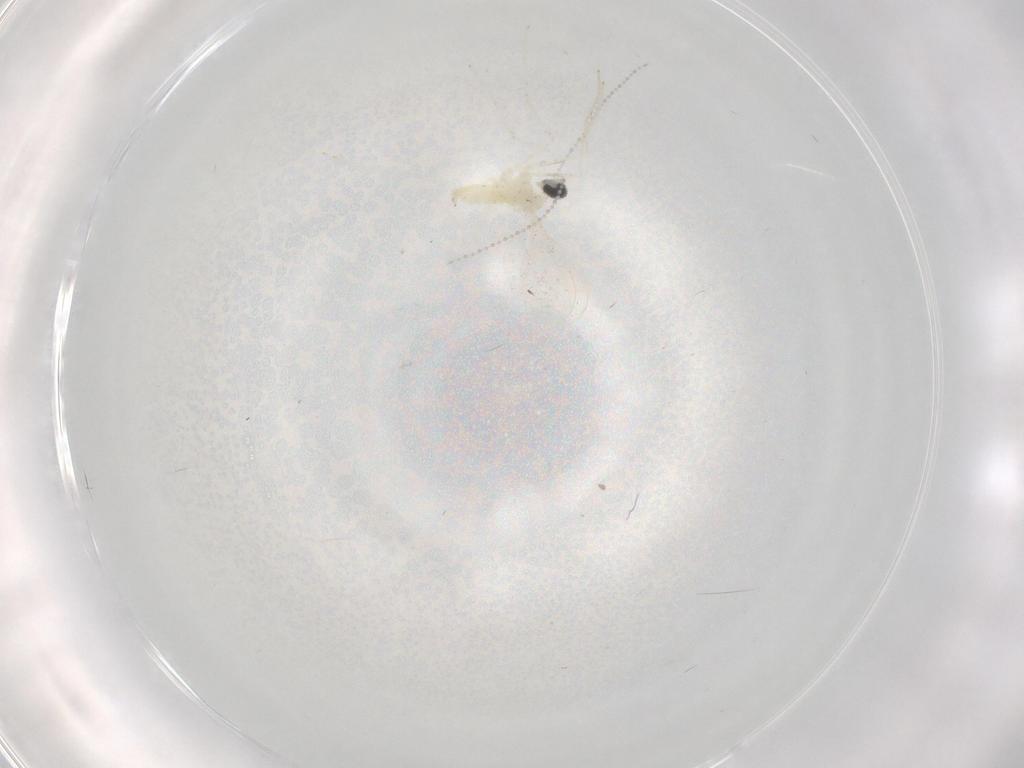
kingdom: Animalia
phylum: Arthropoda
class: Insecta
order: Diptera
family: Cecidomyiidae
